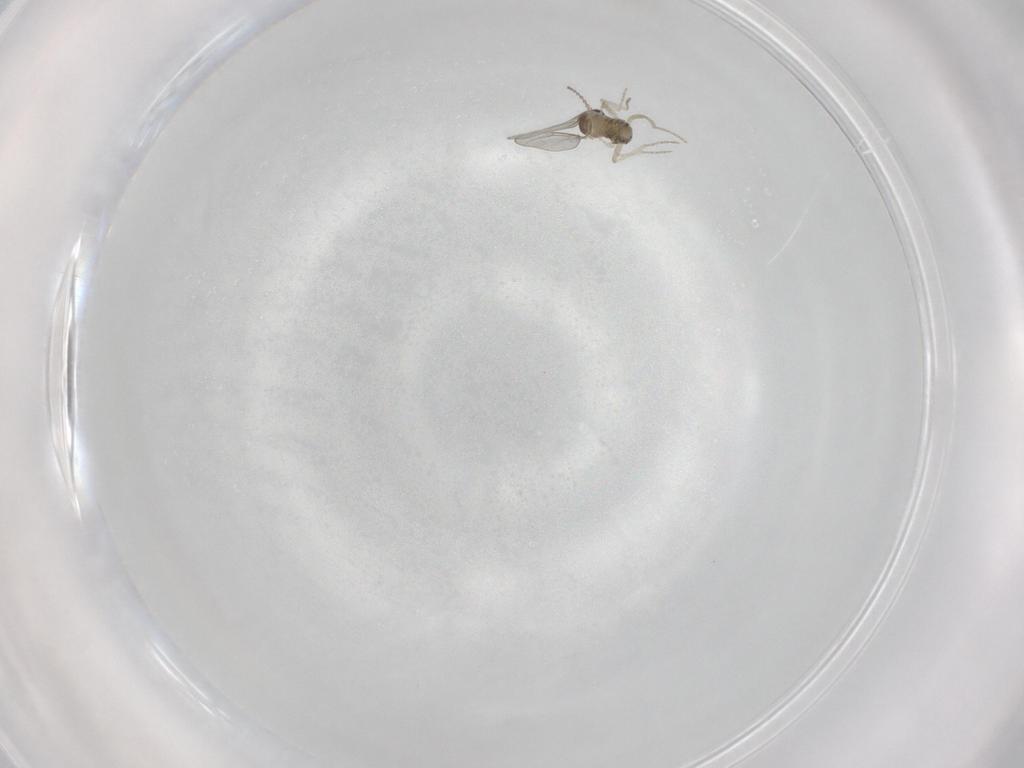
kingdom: Animalia
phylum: Arthropoda
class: Insecta
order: Diptera
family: Cecidomyiidae
